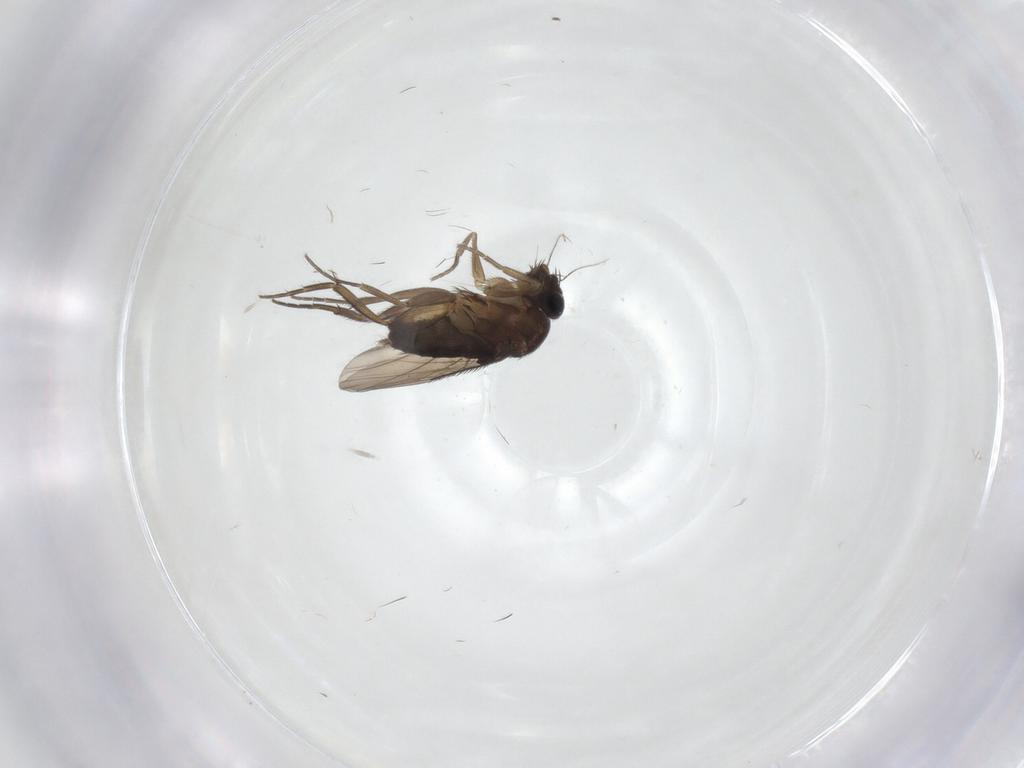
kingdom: Animalia
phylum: Arthropoda
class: Insecta
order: Diptera
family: Phoridae
